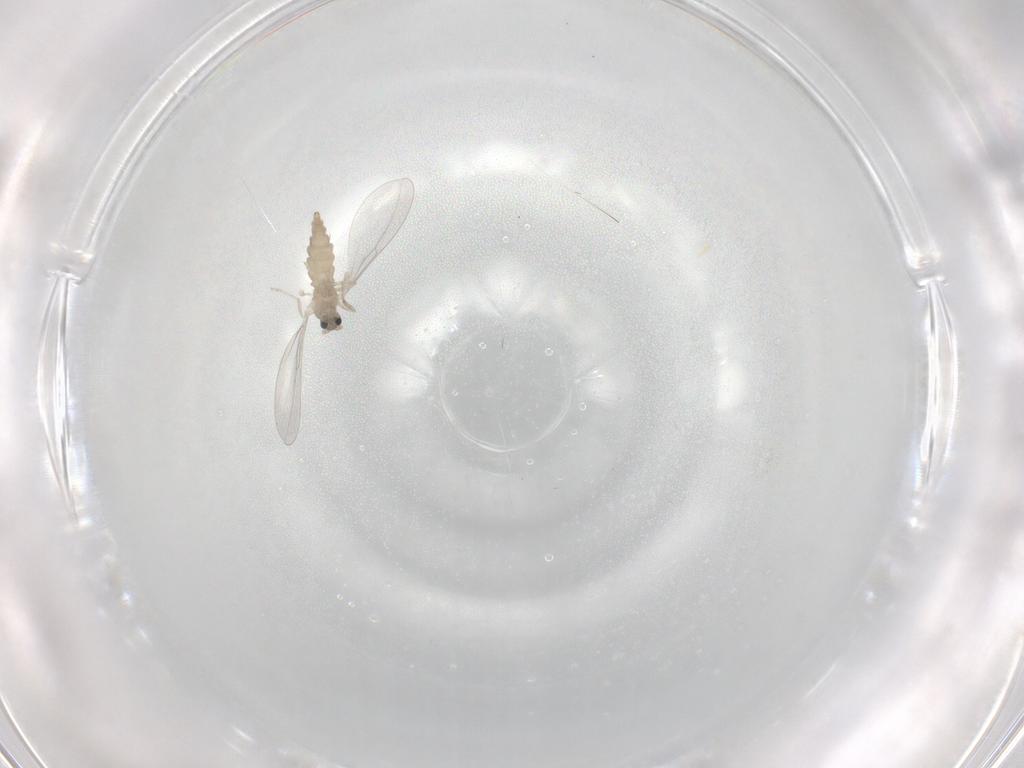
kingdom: Animalia
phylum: Arthropoda
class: Insecta
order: Diptera
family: Cecidomyiidae
